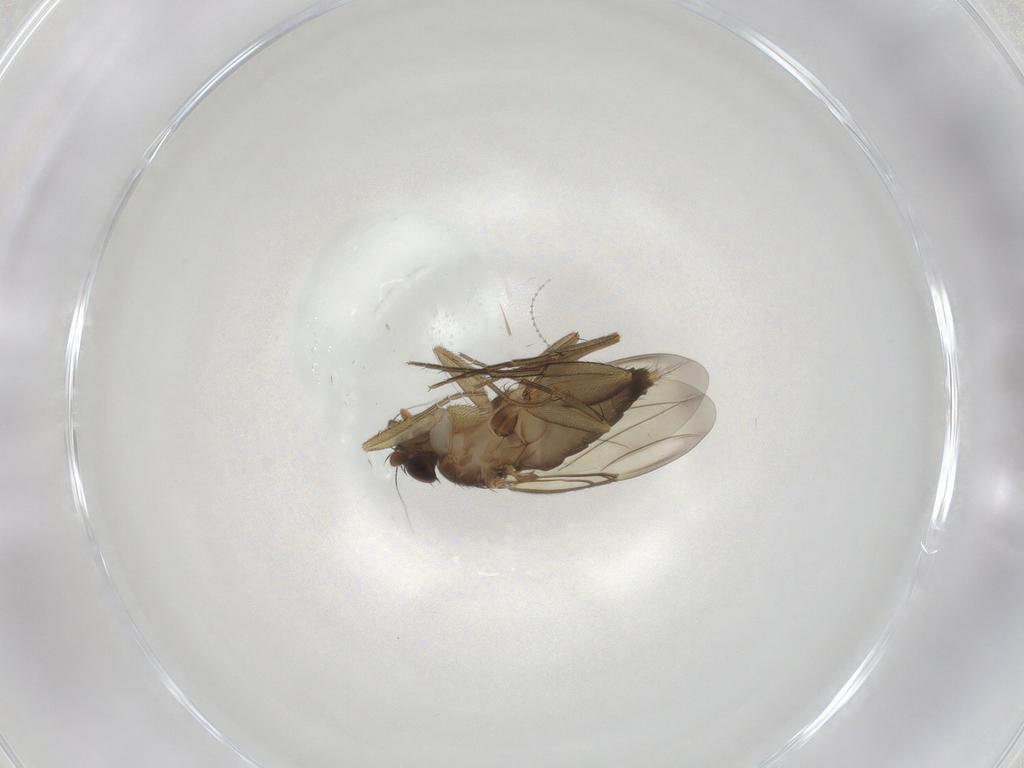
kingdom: Animalia
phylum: Arthropoda
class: Insecta
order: Diptera
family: Phoridae
